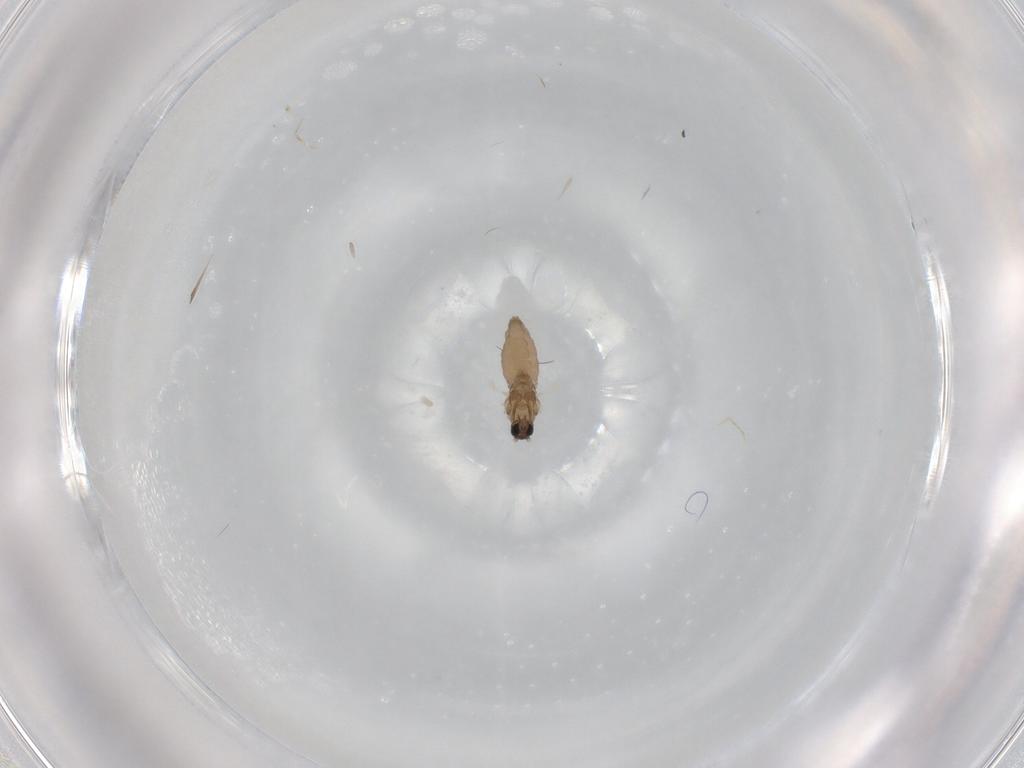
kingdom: Animalia
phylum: Arthropoda
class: Insecta
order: Diptera
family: Cecidomyiidae
